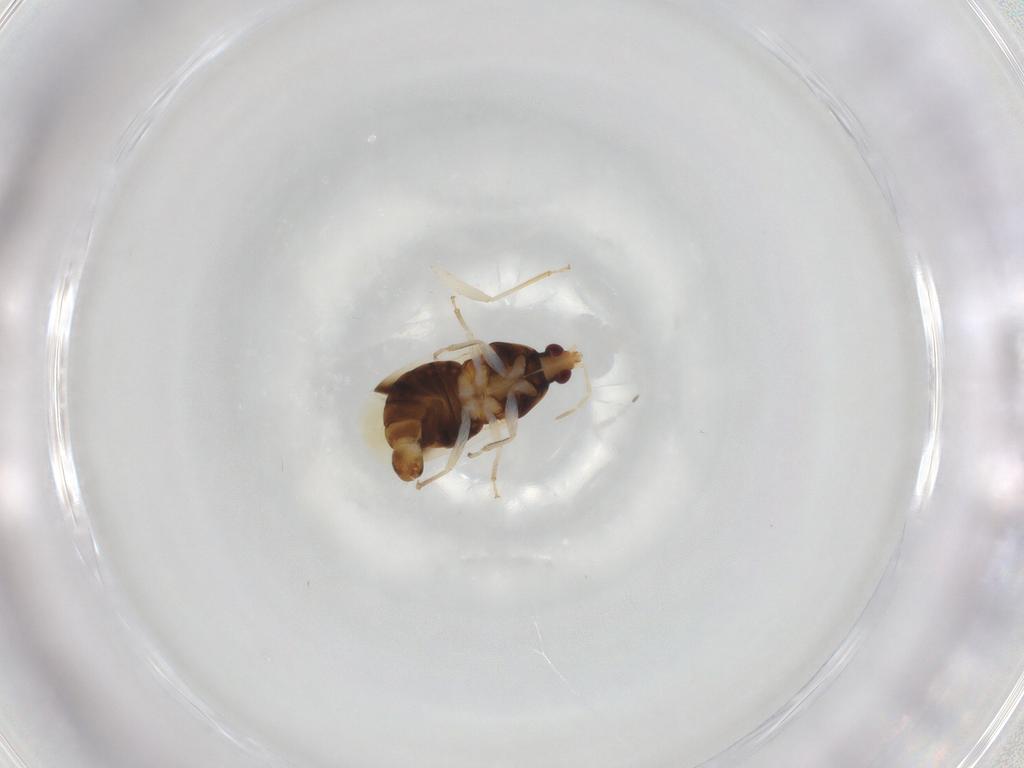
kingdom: Animalia
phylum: Arthropoda
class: Insecta
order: Hemiptera
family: Anthocoridae
